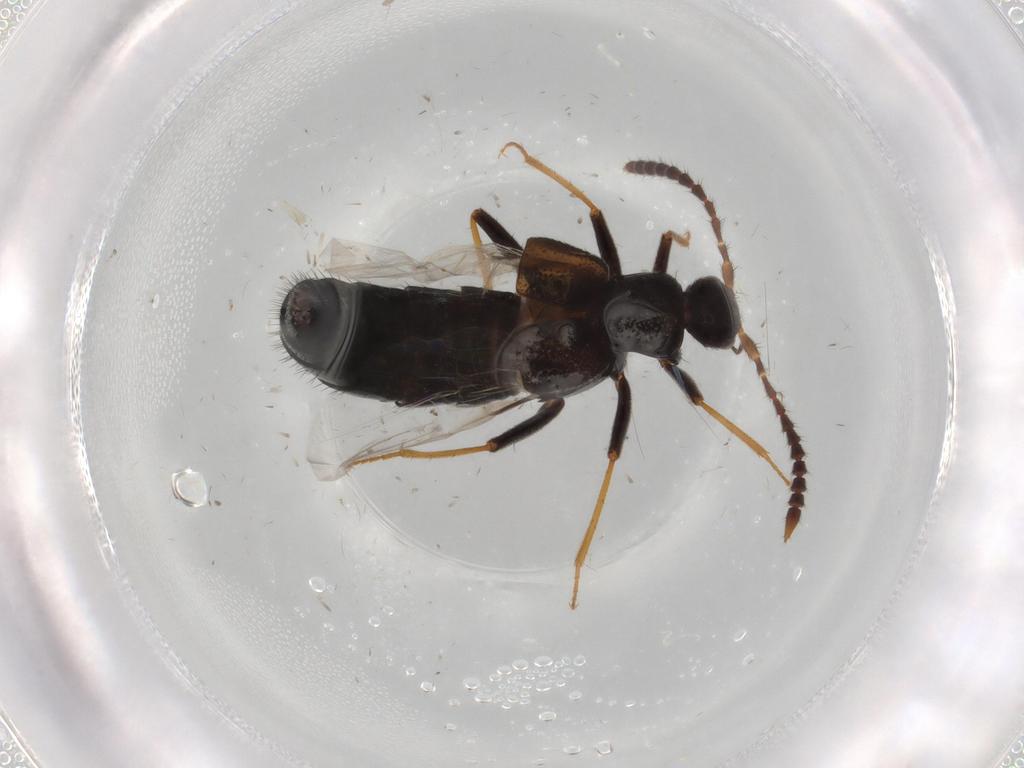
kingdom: Animalia
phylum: Arthropoda
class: Insecta
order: Coleoptera
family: Staphylinidae
